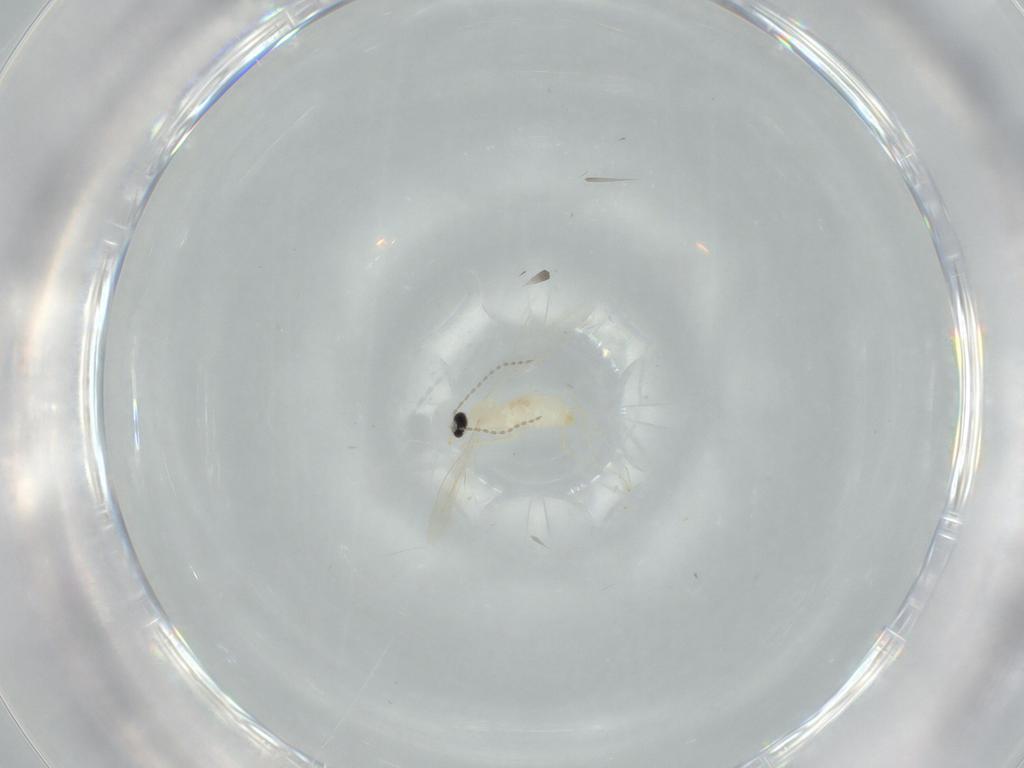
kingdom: Animalia
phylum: Arthropoda
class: Insecta
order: Diptera
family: Cecidomyiidae
